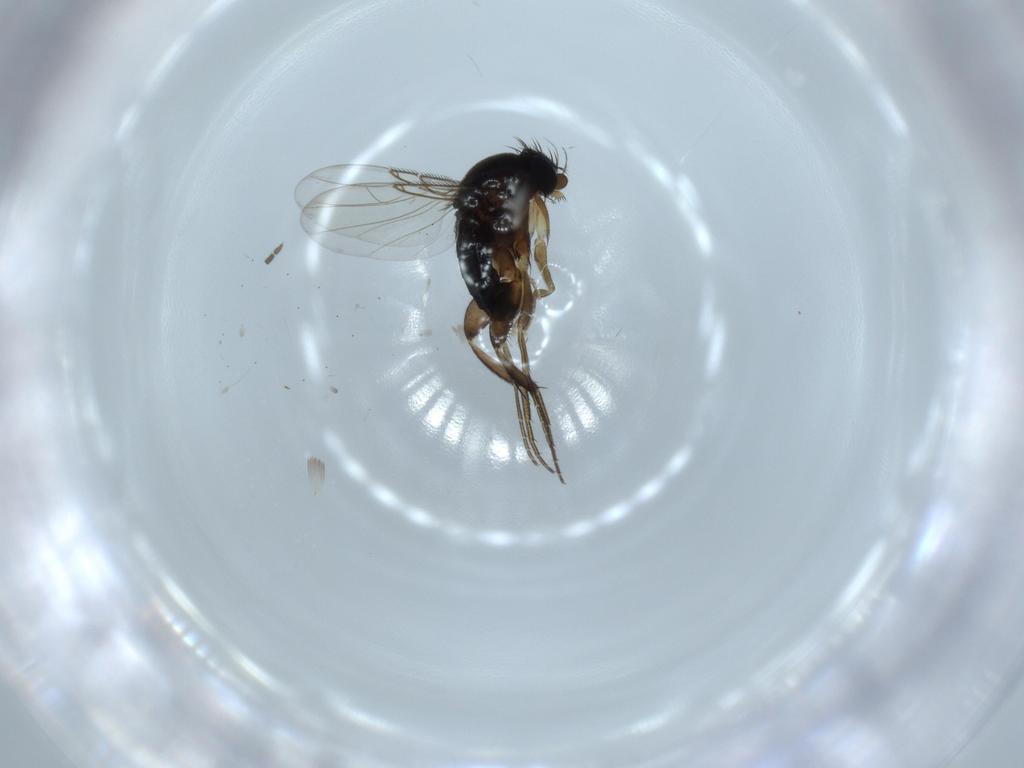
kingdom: Animalia
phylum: Arthropoda
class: Insecta
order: Diptera
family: Phoridae
